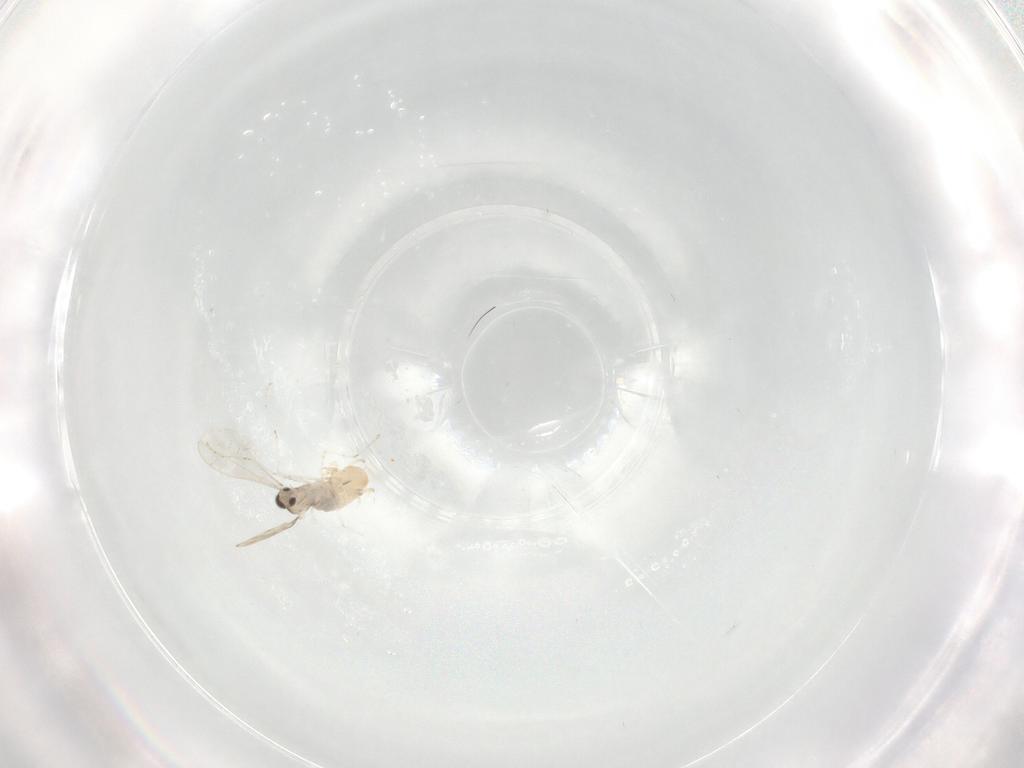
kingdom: Animalia
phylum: Arthropoda
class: Insecta
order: Diptera
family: Cecidomyiidae
